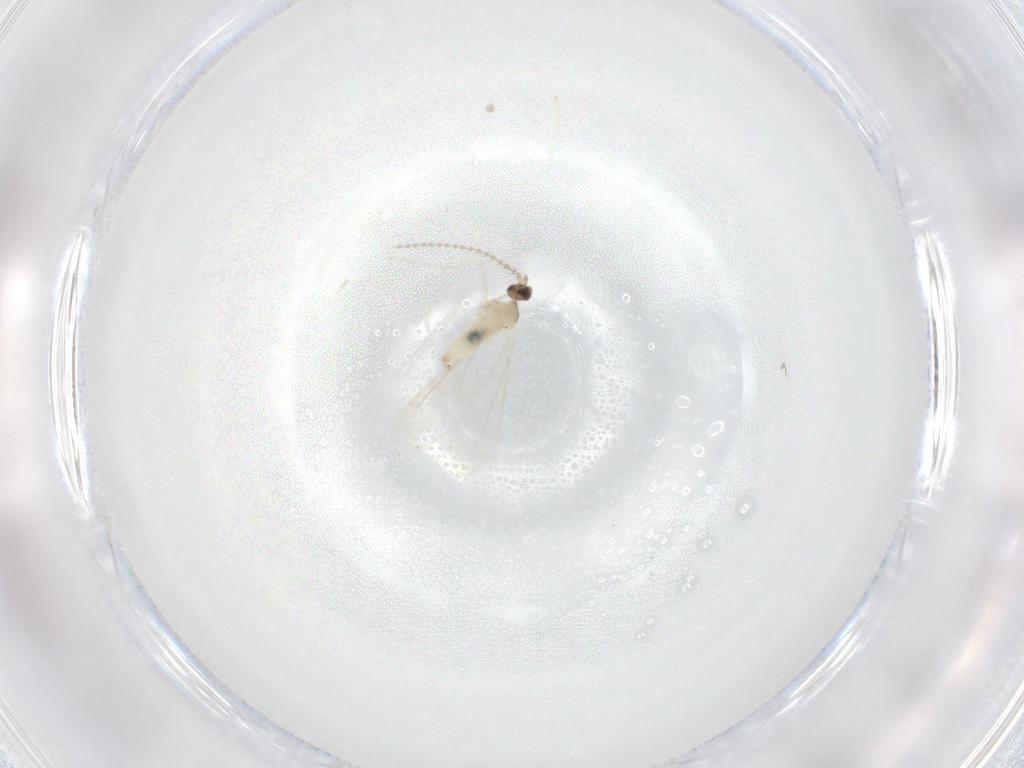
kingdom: Animalia
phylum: Arthropoda
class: Insecta
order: Diptera
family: Cecidomyiidae
